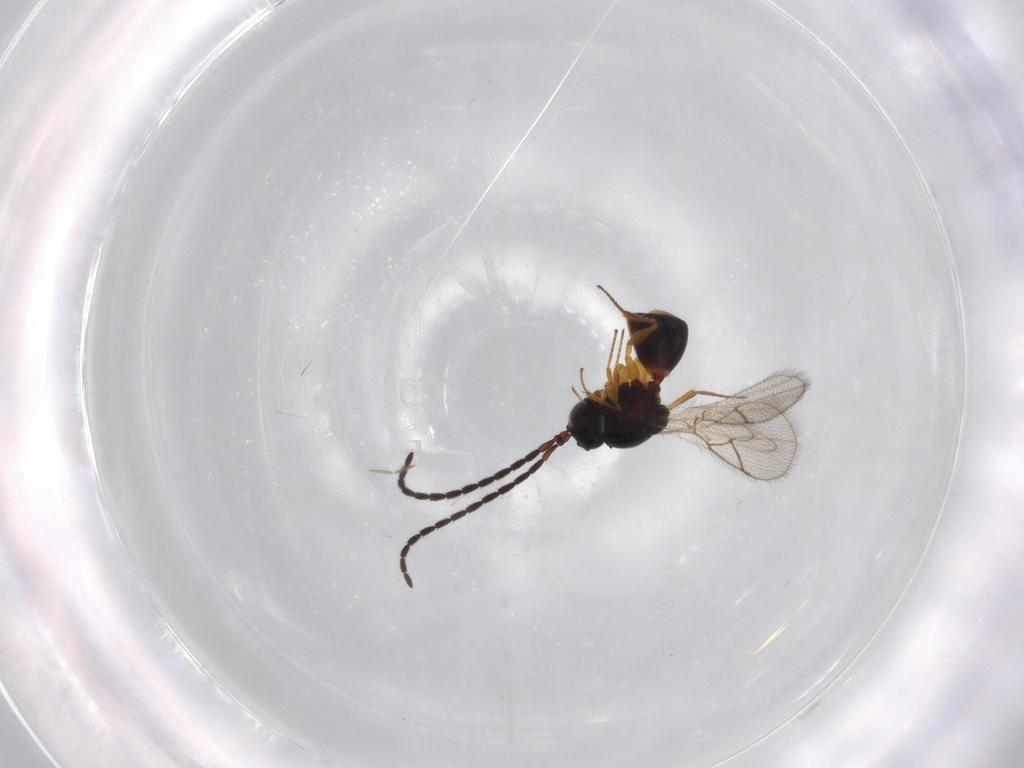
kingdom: Animalia
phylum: Arthropoda
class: Insecta
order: Hymenoptera
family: Figitidae
